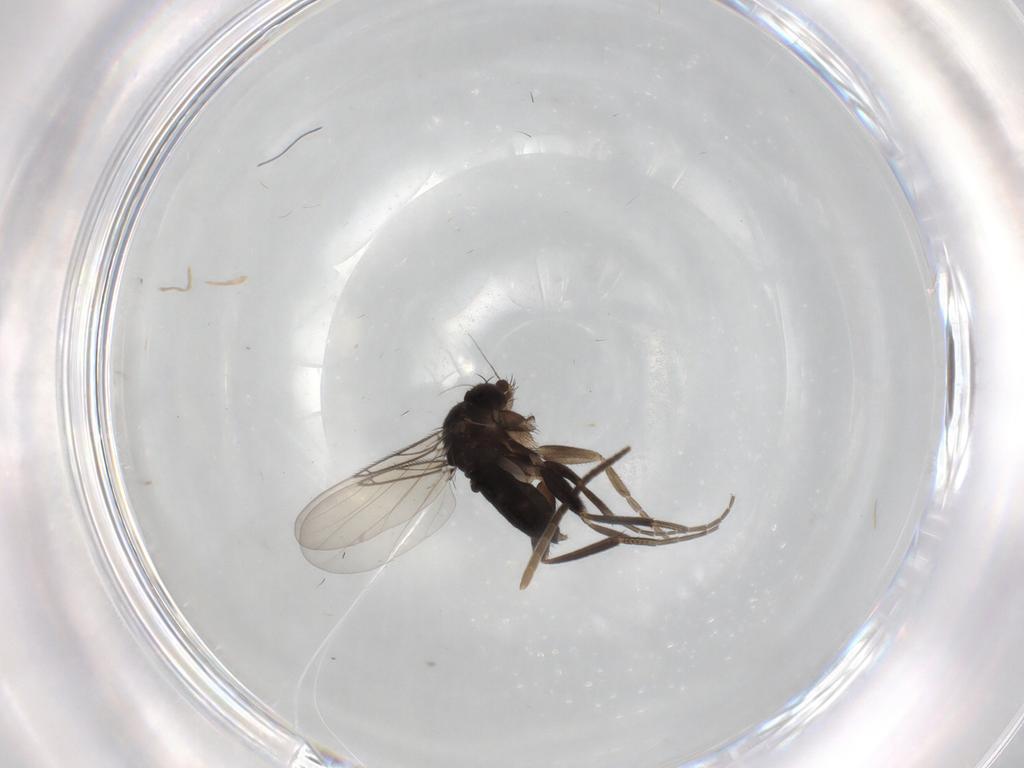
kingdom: Animalia
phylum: Arthropoda
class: Insecta
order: Diptera
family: Phoridae
